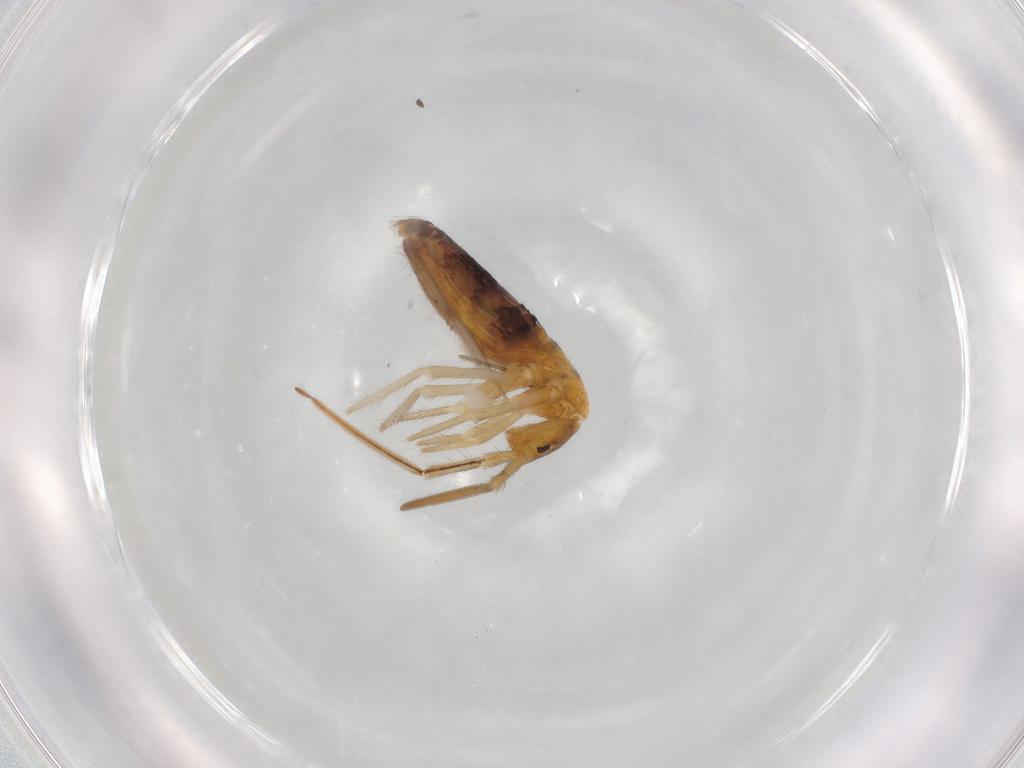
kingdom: Animalia
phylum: Arthropoda
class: Collembola
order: Entomobryomorpha
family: Entomobryidae
